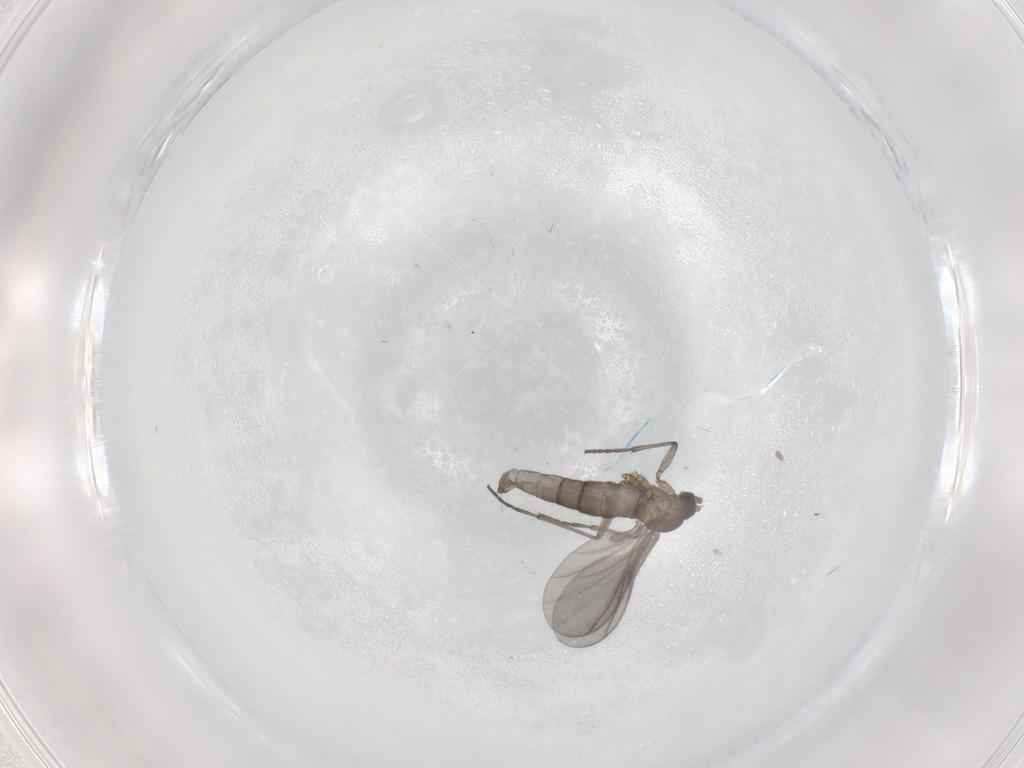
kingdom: Animalia
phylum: Arthropoda
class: Insecta
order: Diptera
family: Sciaridae
